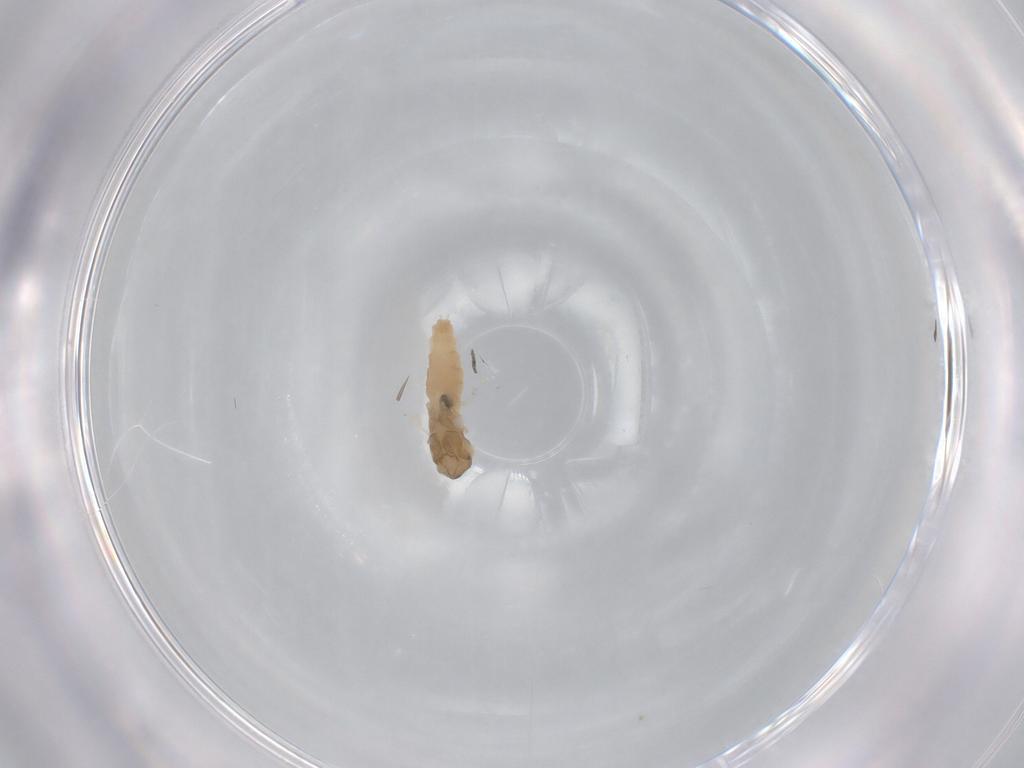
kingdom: Animalia
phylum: Arthropoda
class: Insecta
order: Diptera
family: Cecidomyiidae
